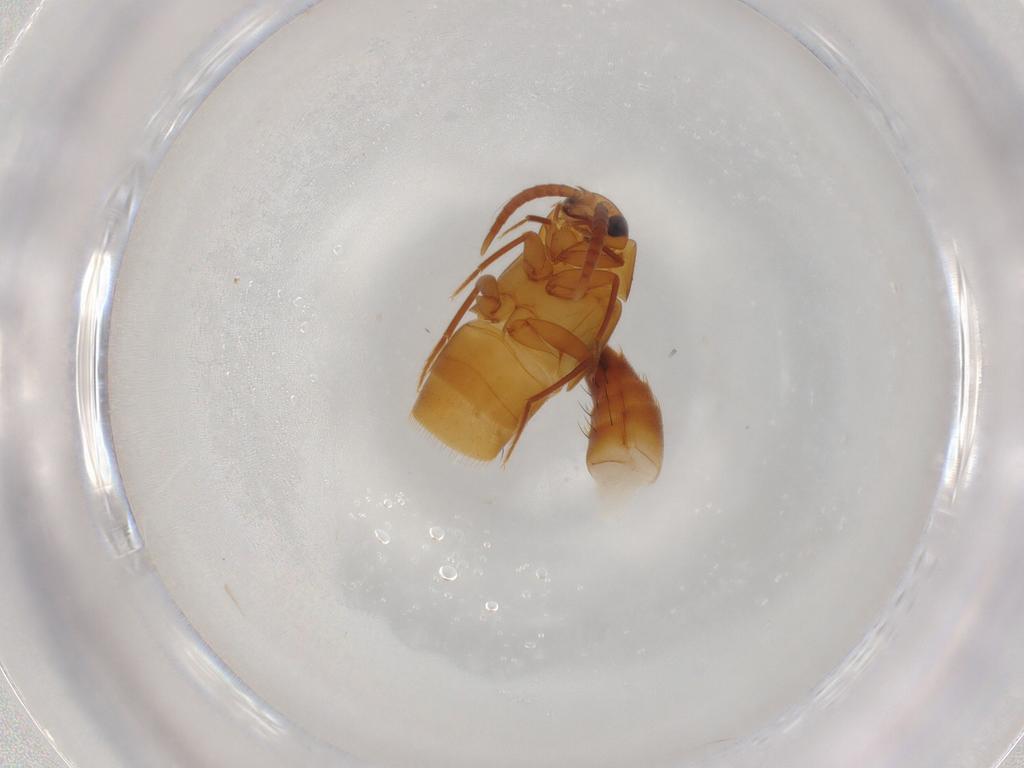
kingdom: Animalia
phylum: Arthropoda
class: Insecta
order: Coleoptera
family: Staphylinidae
